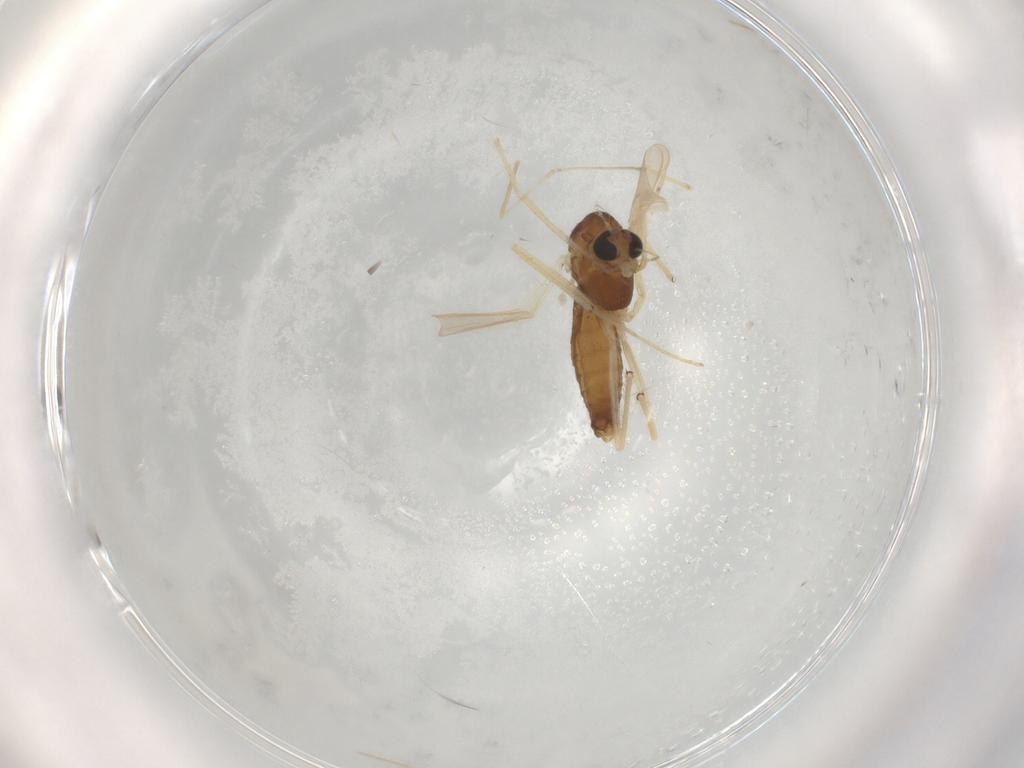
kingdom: Animalia
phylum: Arthropoda
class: Insecta
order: Diptera
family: Chironomidae
